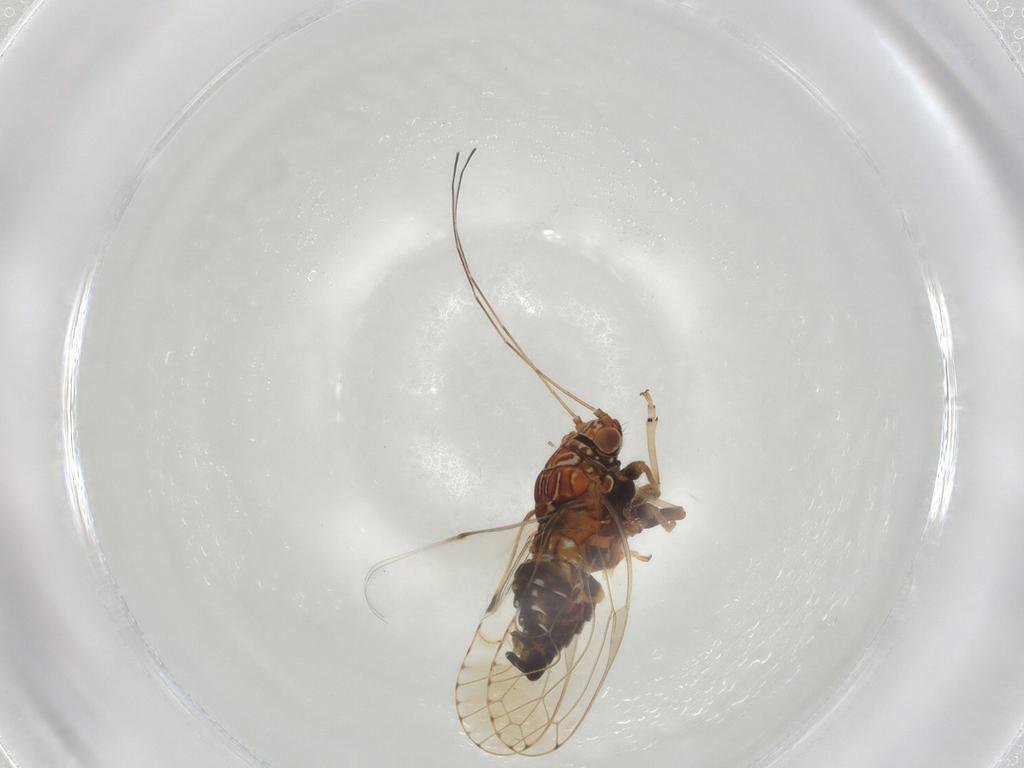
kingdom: Animalia
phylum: Arthropoda
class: Insecta
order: Hemiptera
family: Psylloidea_incertae_sedis
